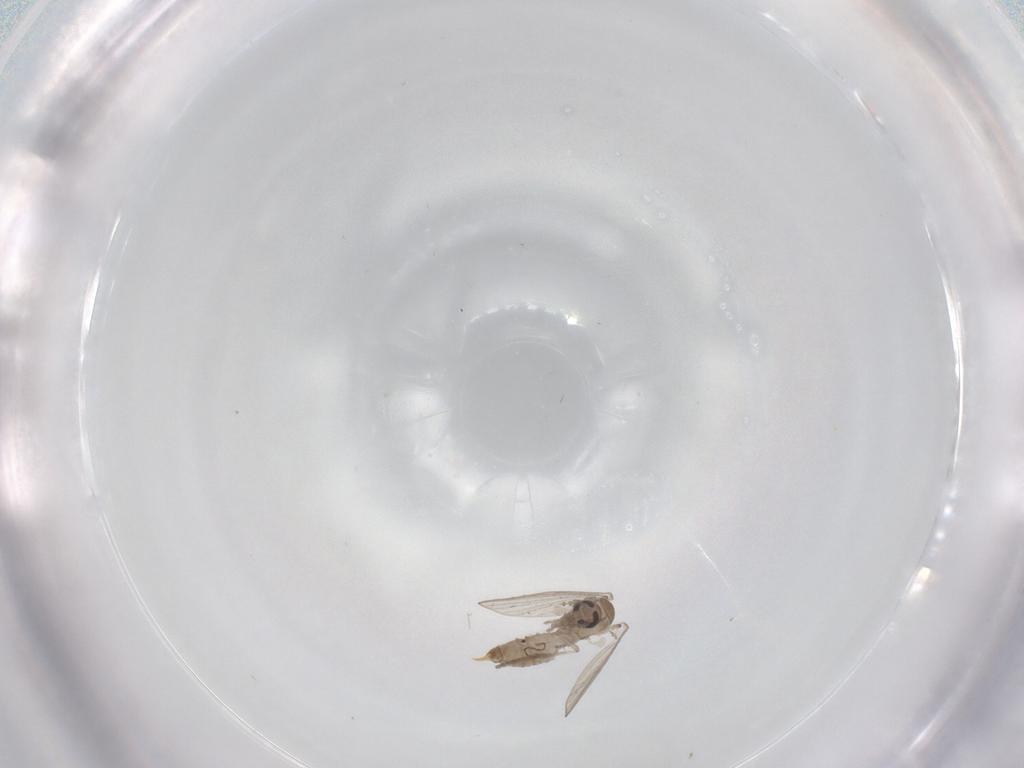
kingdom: Animalia
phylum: Arthropoda
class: Insecta
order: Diptera
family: Psychodidae
